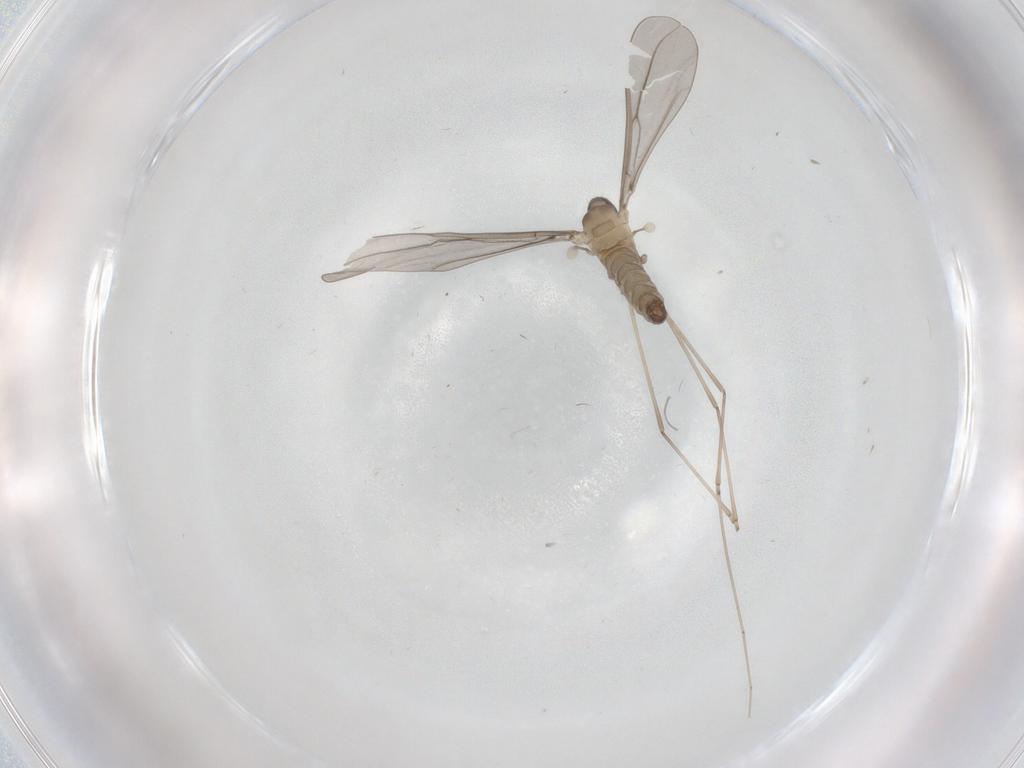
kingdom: Animalia
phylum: Arthropoda
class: Insecta
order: Diptera
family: Cecidomyiidae
